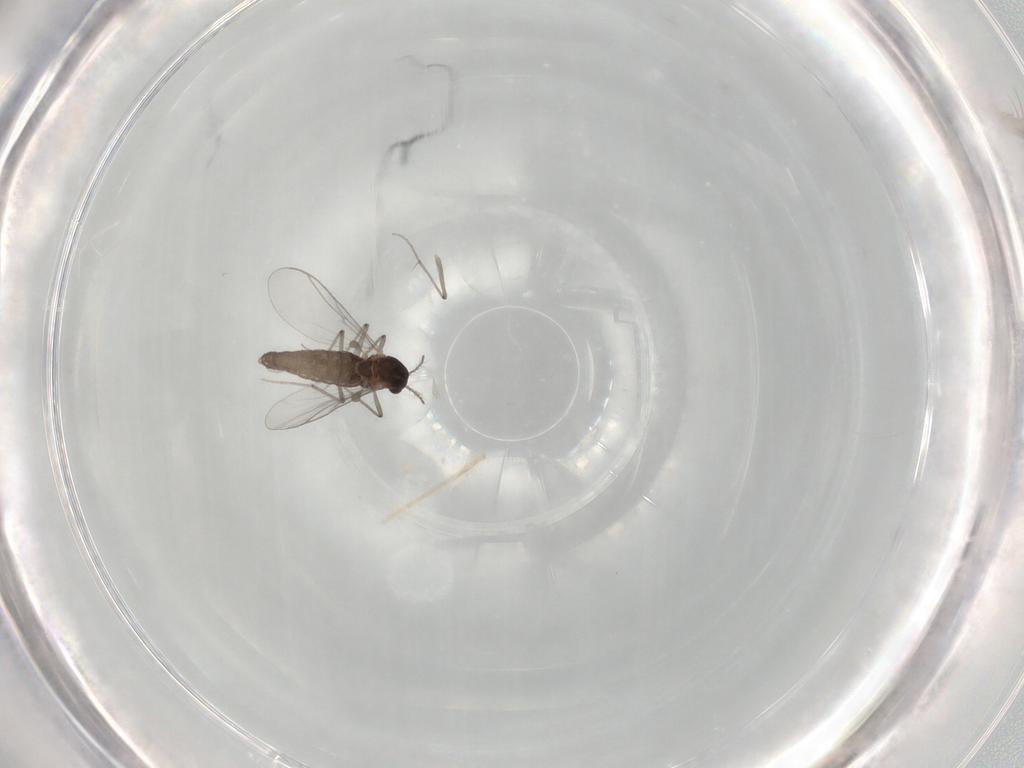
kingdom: Animalia
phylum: Arthropoda
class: Insecta
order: Diptera
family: Chironomidae
